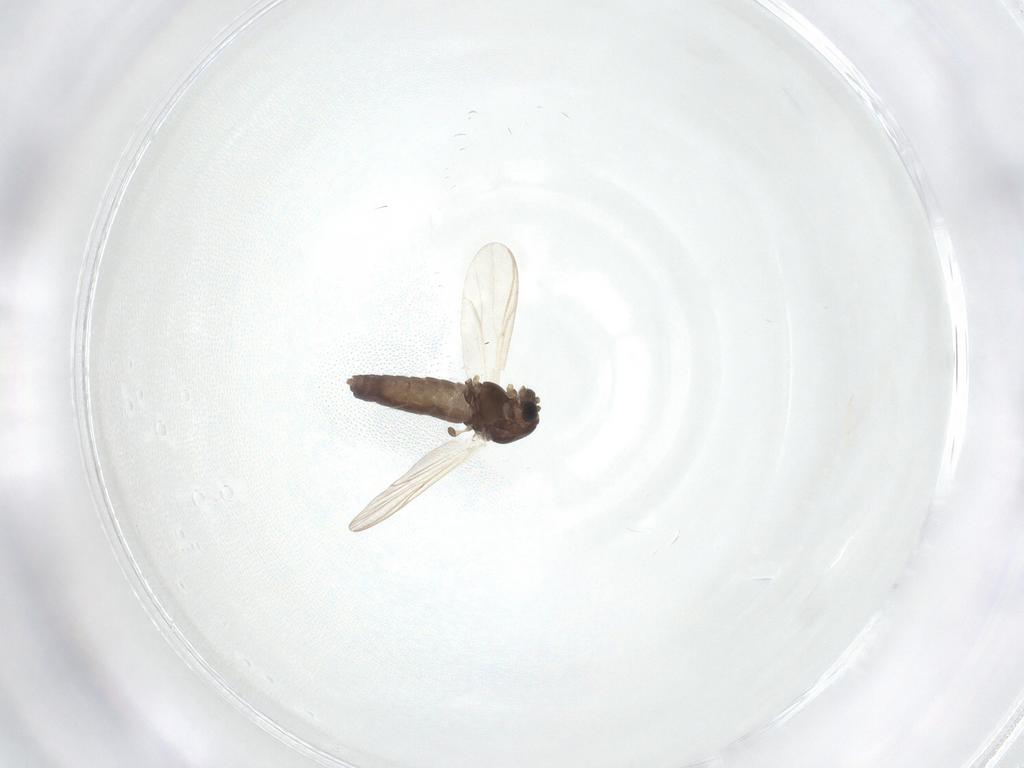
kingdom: Animalia
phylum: Arthropoda
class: Insecta
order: Diptera
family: Chironomidae
